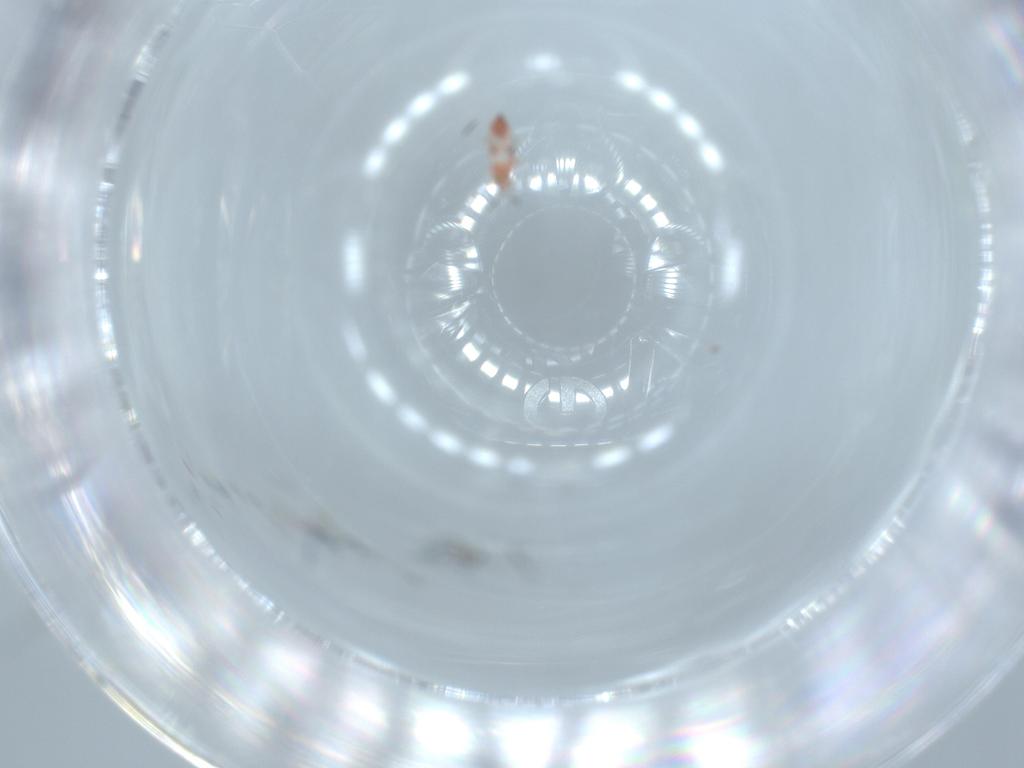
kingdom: Animalia
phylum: Arthropoda
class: Insecta
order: Thysanoptera
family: Phlaeothripidae
